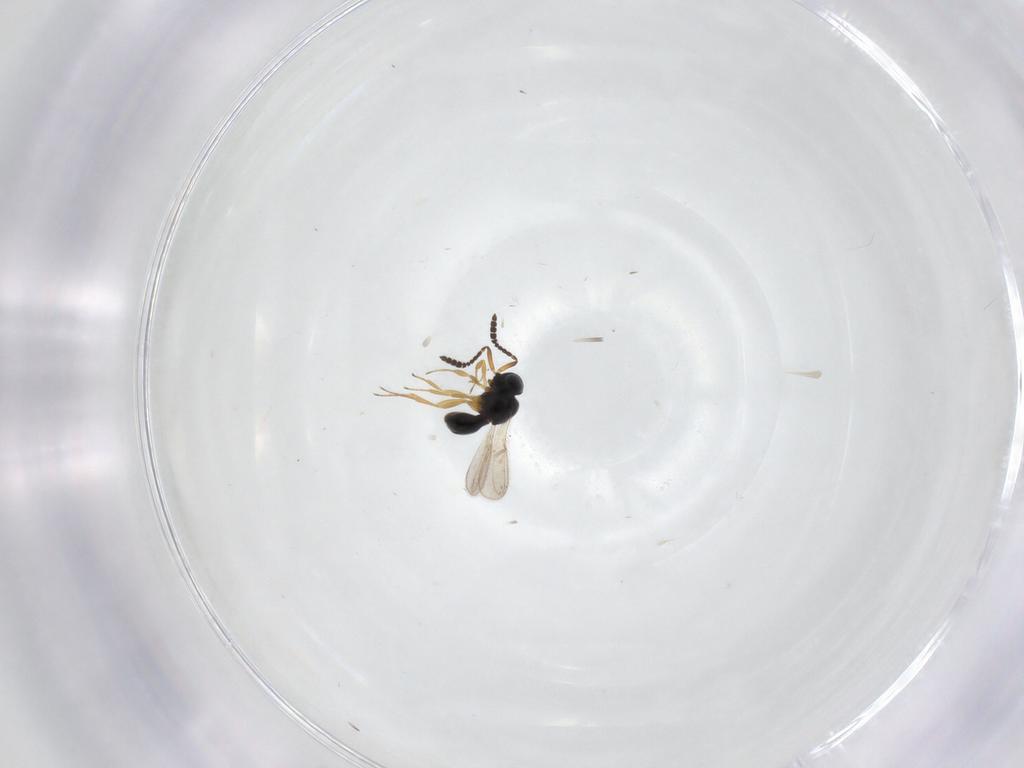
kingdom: Animalia
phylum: Arthropoda
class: Insecta
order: Hymenoptera
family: Scelionidae
